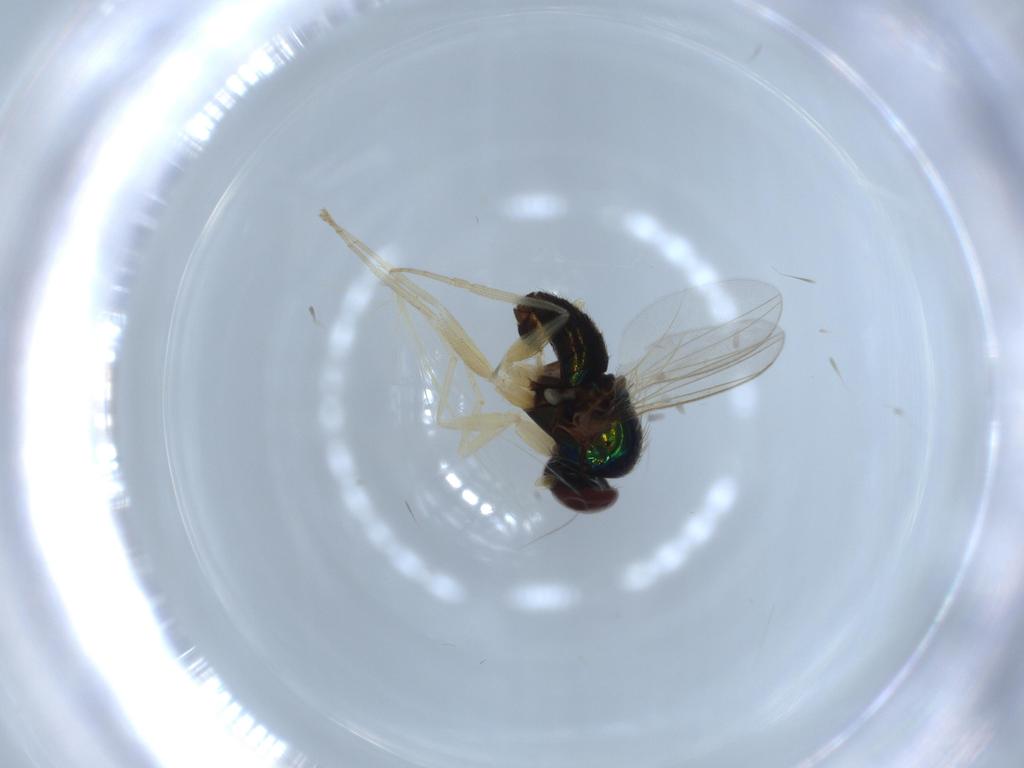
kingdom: Animalia
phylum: Arthropoda
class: Insecta
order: Diptera
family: Dolichopodidae
